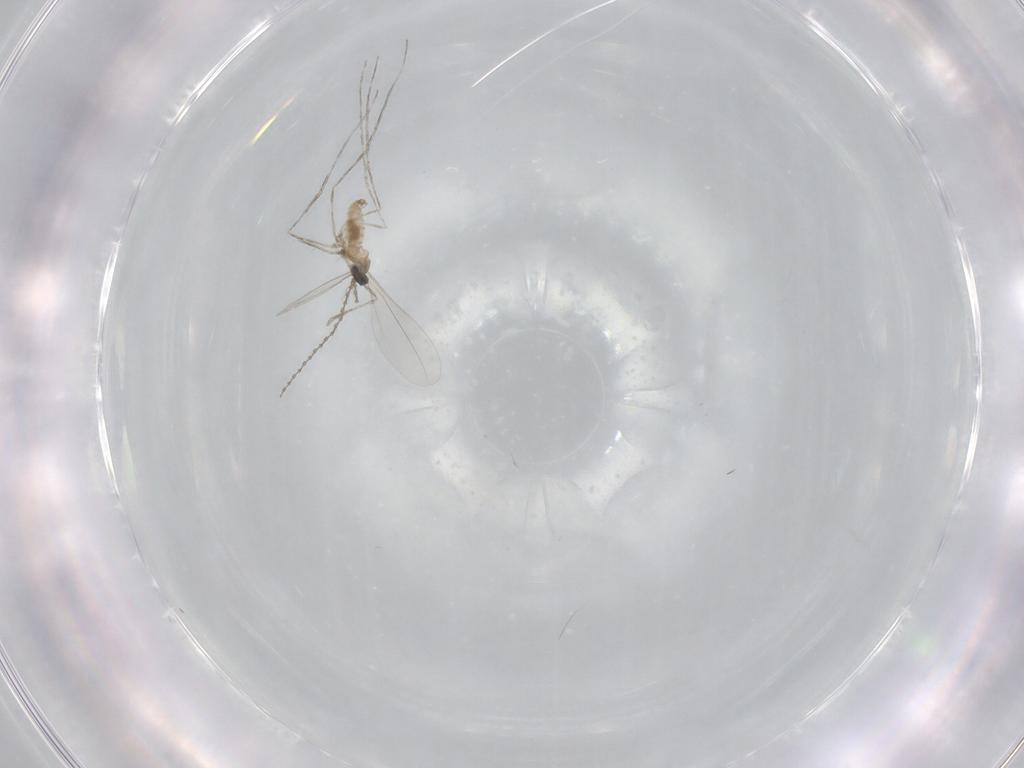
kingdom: Animalia
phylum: Arthropoda
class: Insecta
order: Diptera
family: Cecidomyiidae
